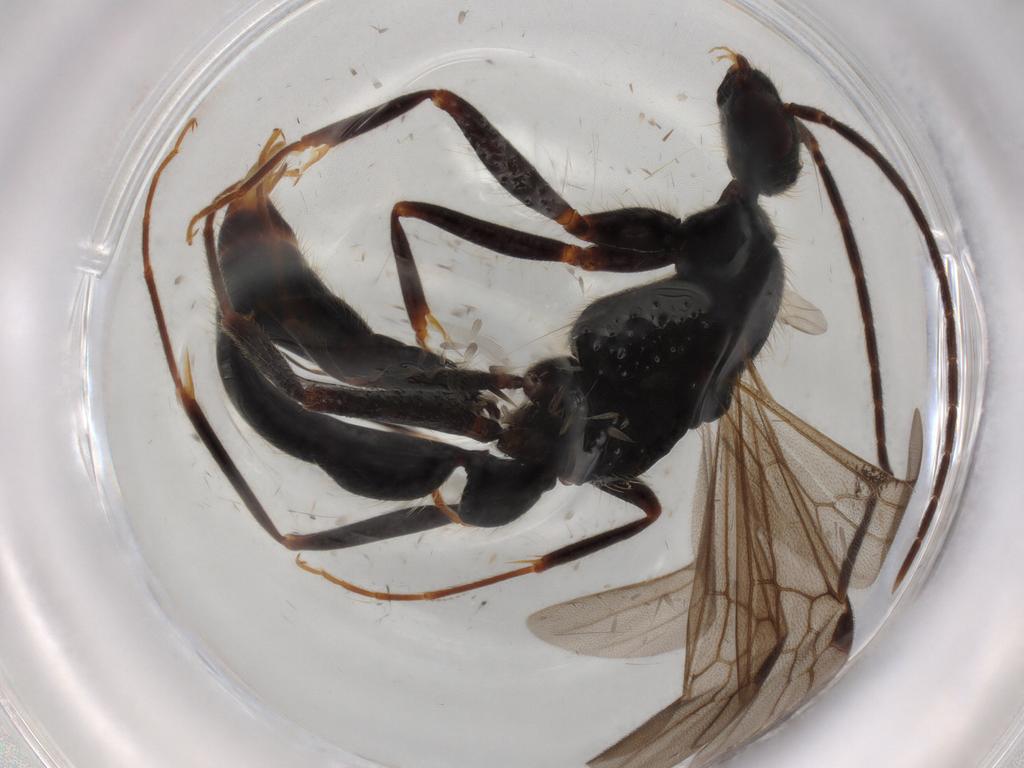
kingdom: Animalia
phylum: Arthropoda
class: Insecta
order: Hymenoptera
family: Formicidae
